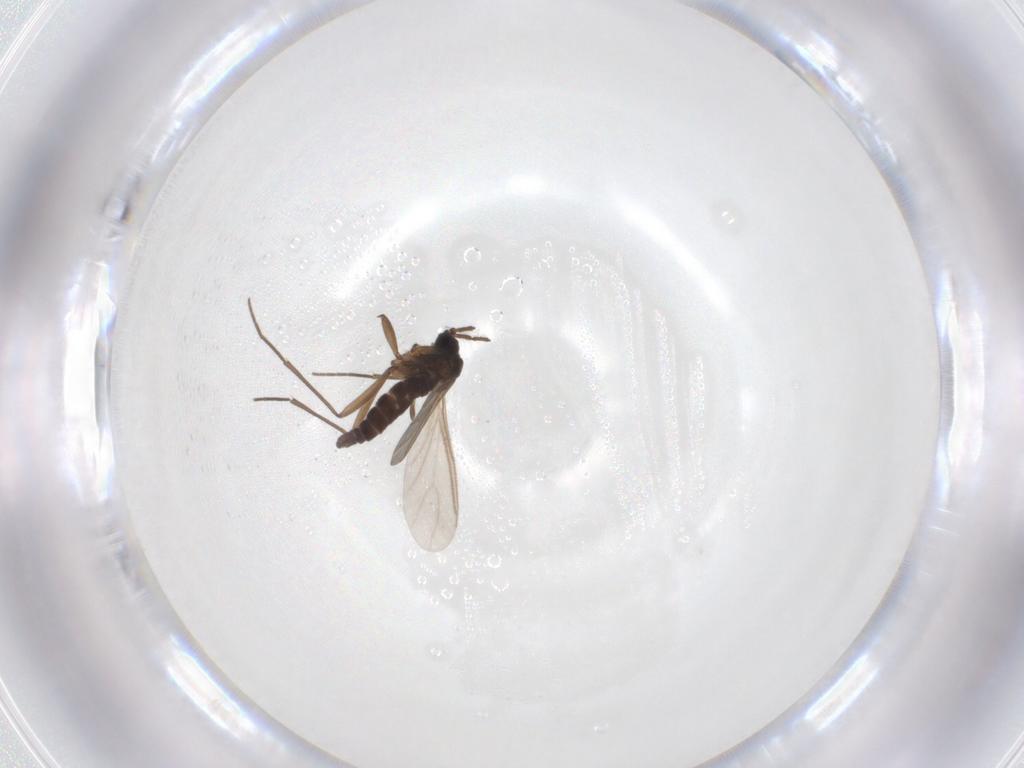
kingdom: Animalia
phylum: Arthropoda
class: Insecta
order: Diptera
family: Sciaridae
